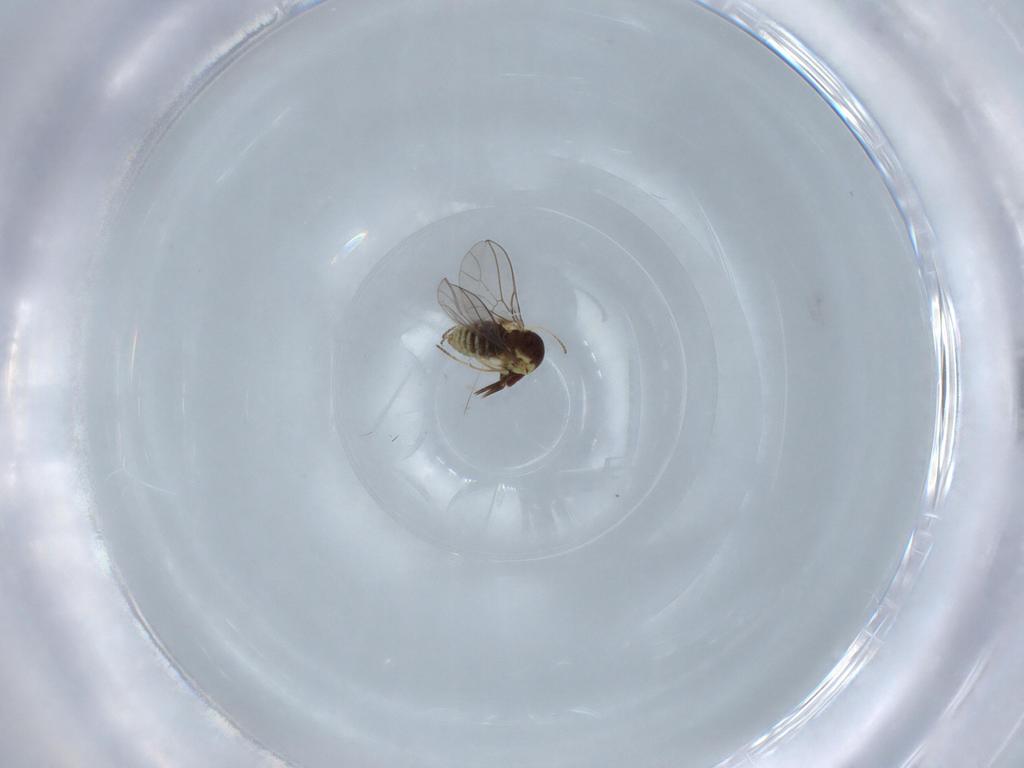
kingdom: Animalia
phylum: Arthropoda
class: Insecta
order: Diptera
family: Mythicomyiidae
